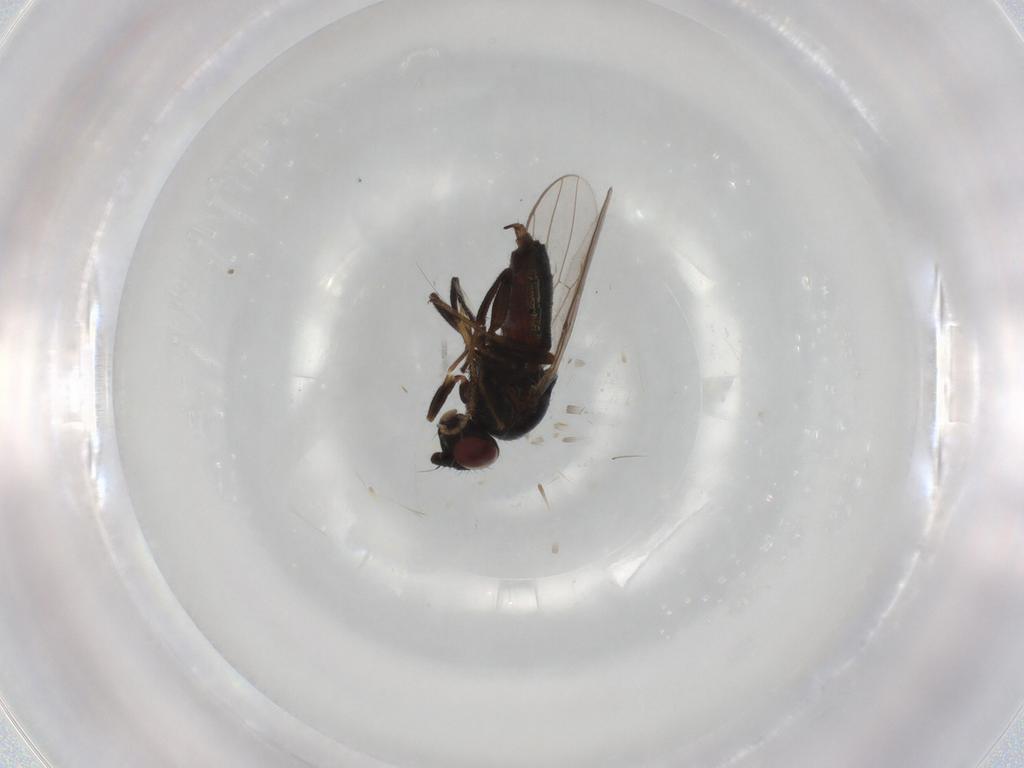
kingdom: Animalia
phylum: Arthropoda
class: Insecta
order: Diptera
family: Chloropidae
